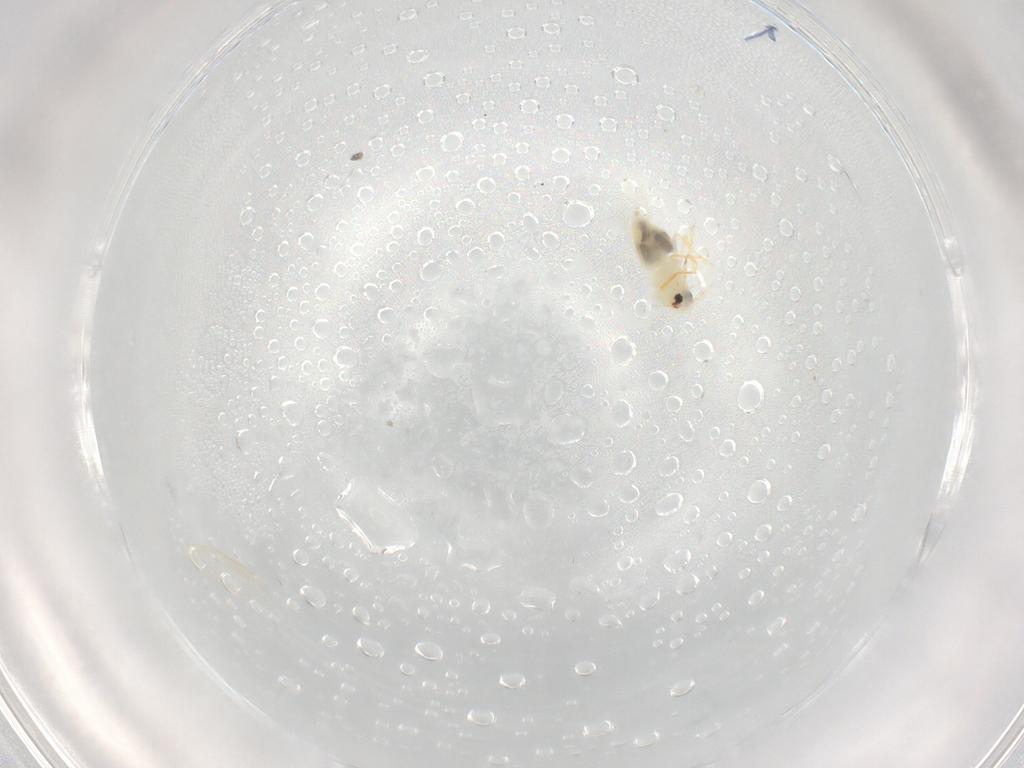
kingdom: Animalia
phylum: Arthropoda
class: Insecta
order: Hemiptera
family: Aleyrodidae
